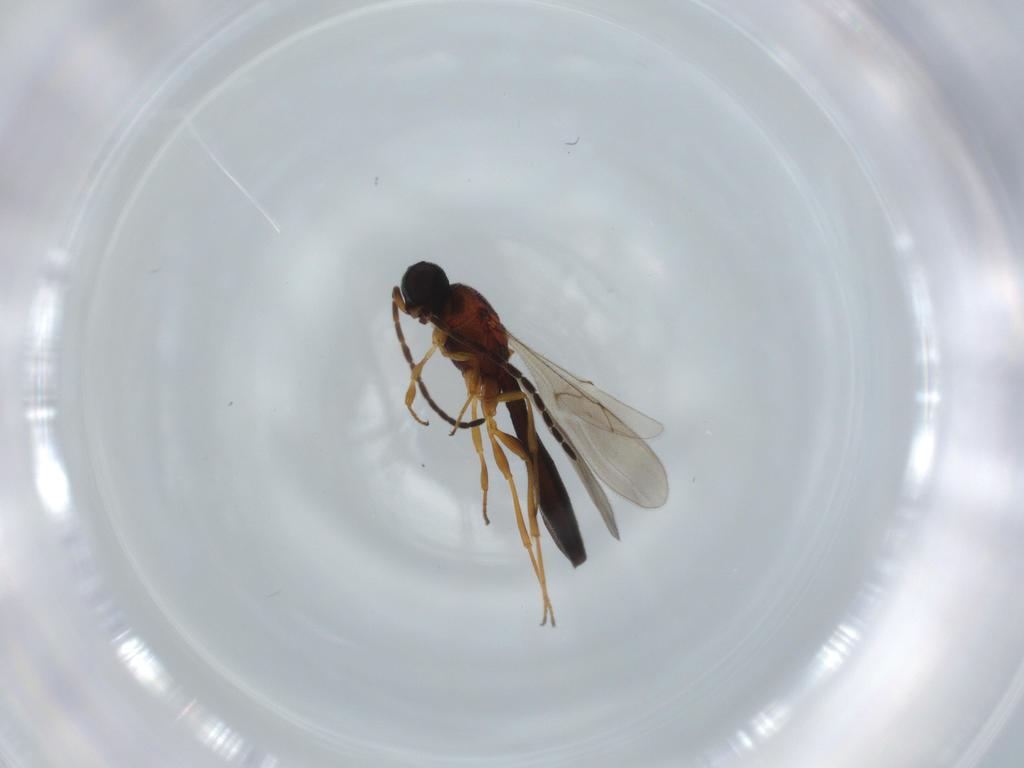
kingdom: Animalia
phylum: Arthropoda
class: Insecta
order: Hymenoptera
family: Scelionidae
